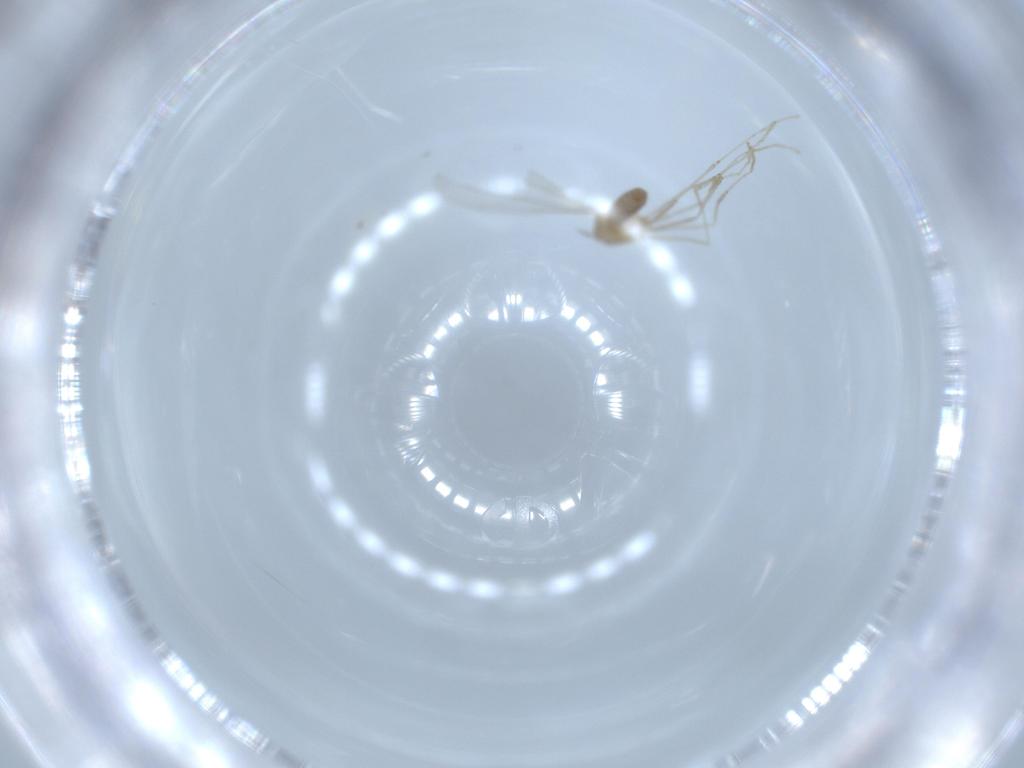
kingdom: Animalia
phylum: Arthropoda
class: Insecta
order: Diptera
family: Cecidomyiidae
